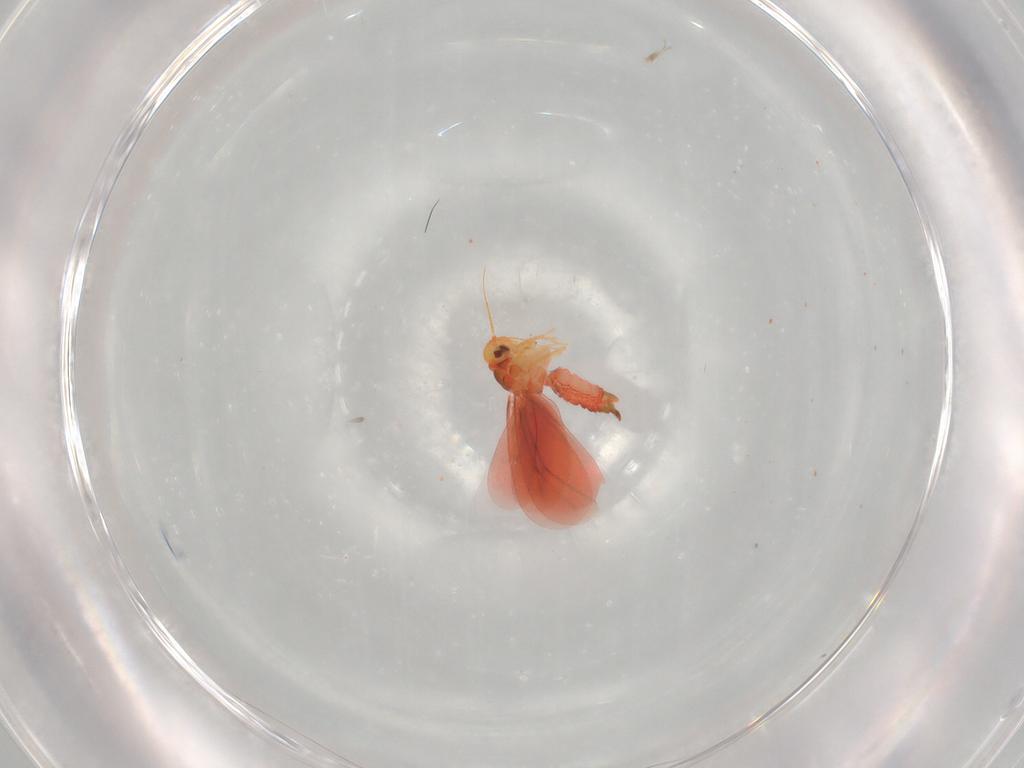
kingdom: Animalia
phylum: Arthropoda
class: Insecta
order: Hemiptera
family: Aleyrodidae
